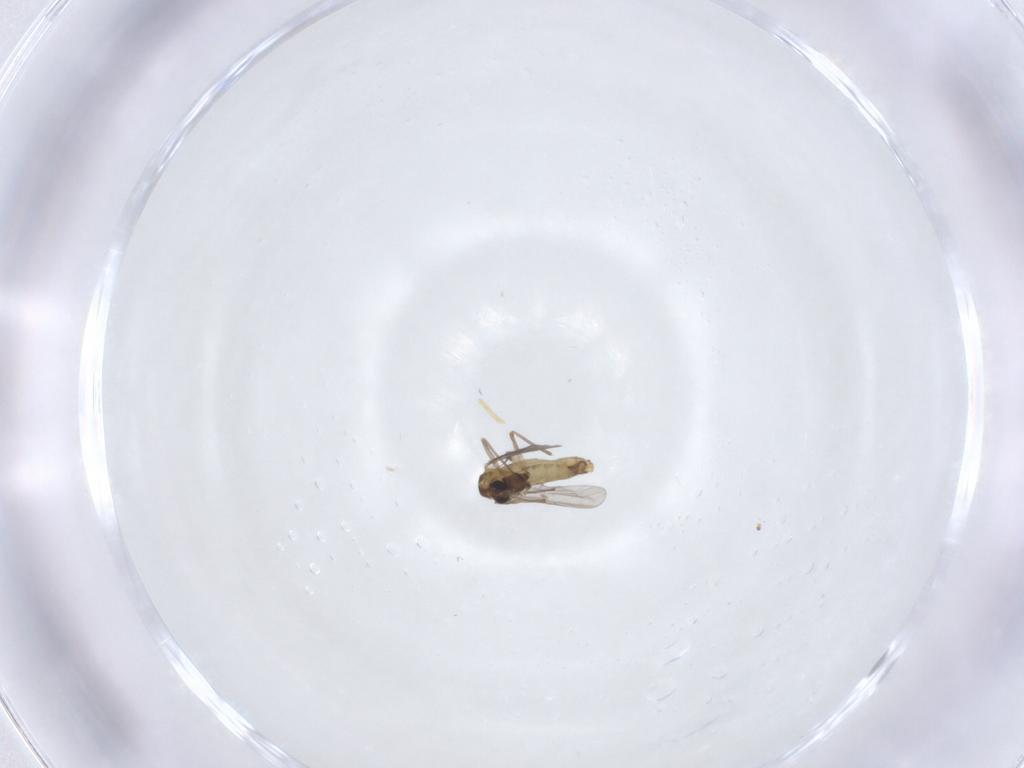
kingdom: Animalia
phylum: Arthropoda
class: Insecta
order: Diptera
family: Chironomidae
